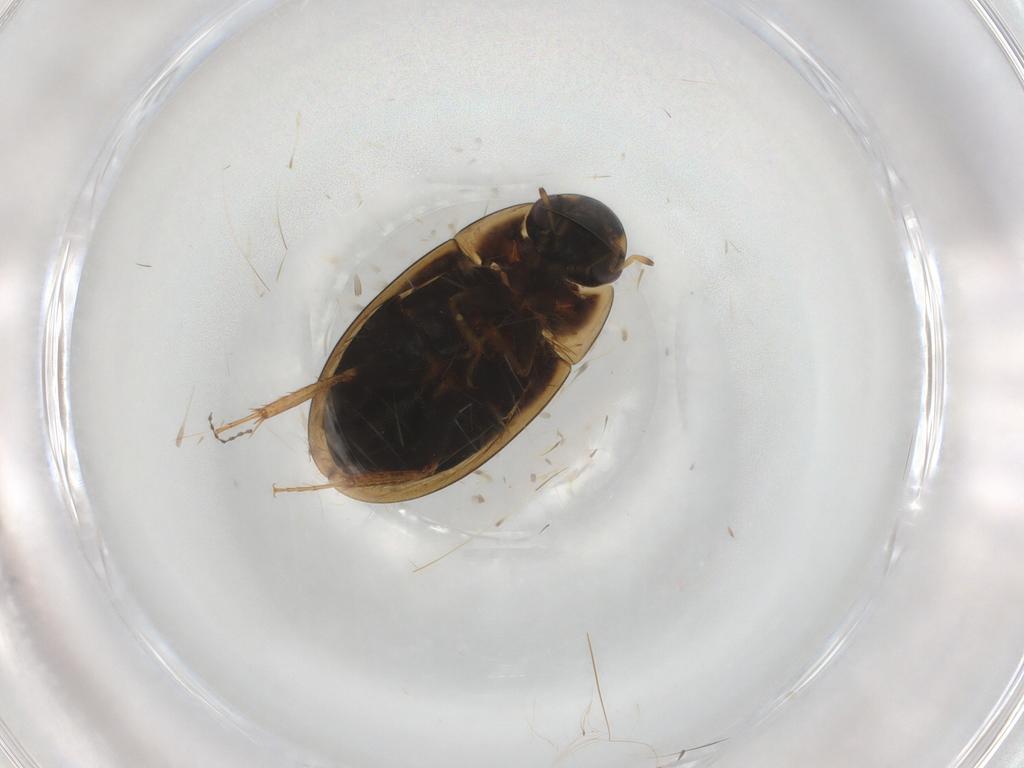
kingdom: Animalia
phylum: Arthropoda
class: Insecta
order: Coleoptera
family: Hydrophilidae
